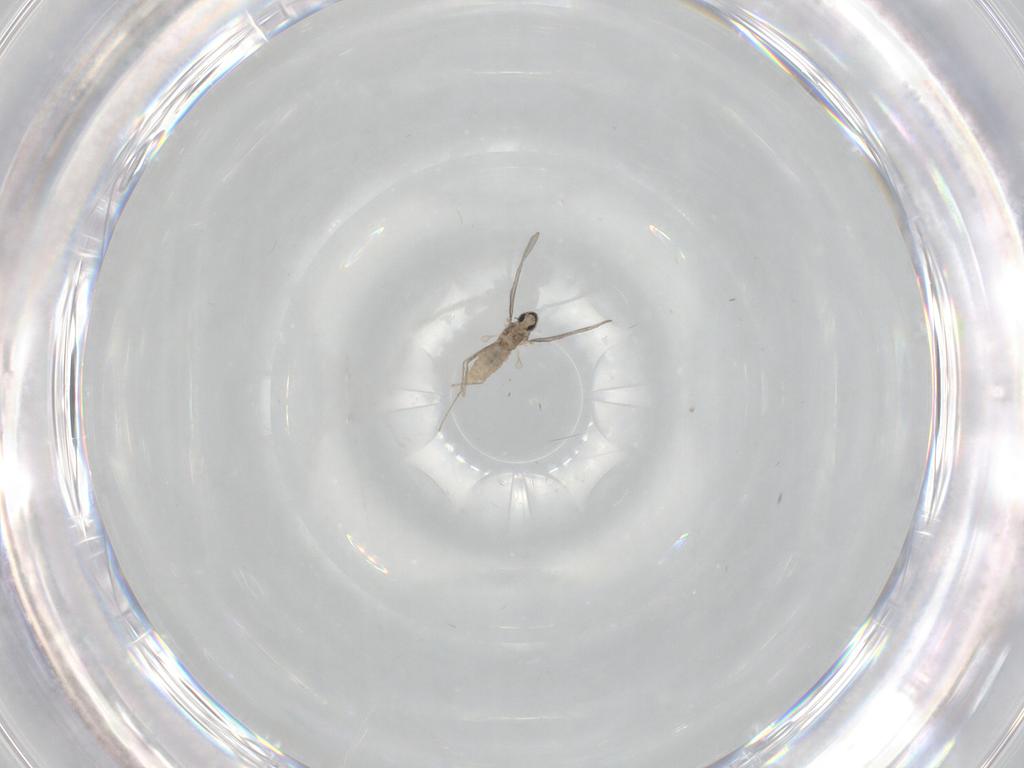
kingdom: Animalia
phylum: Arthropoda
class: Insecta
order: Diptera
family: Cecidomyiidae
